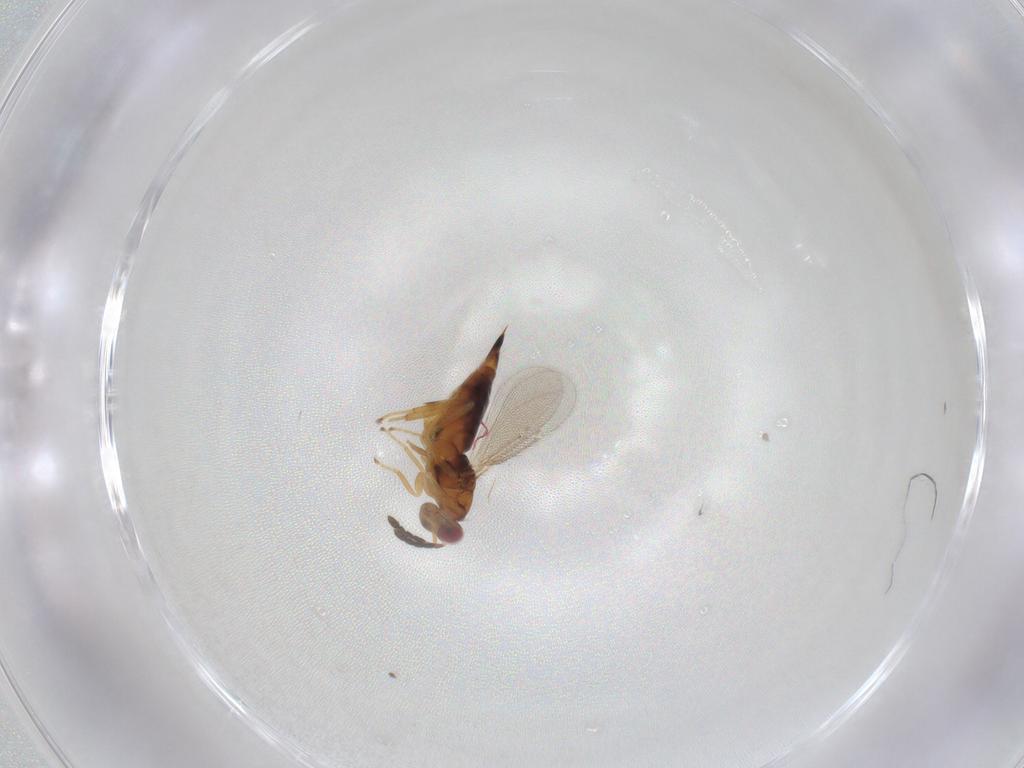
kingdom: Animalia
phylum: Arthropoda
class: Insecta
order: Hymenoptera
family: Eulophidae
